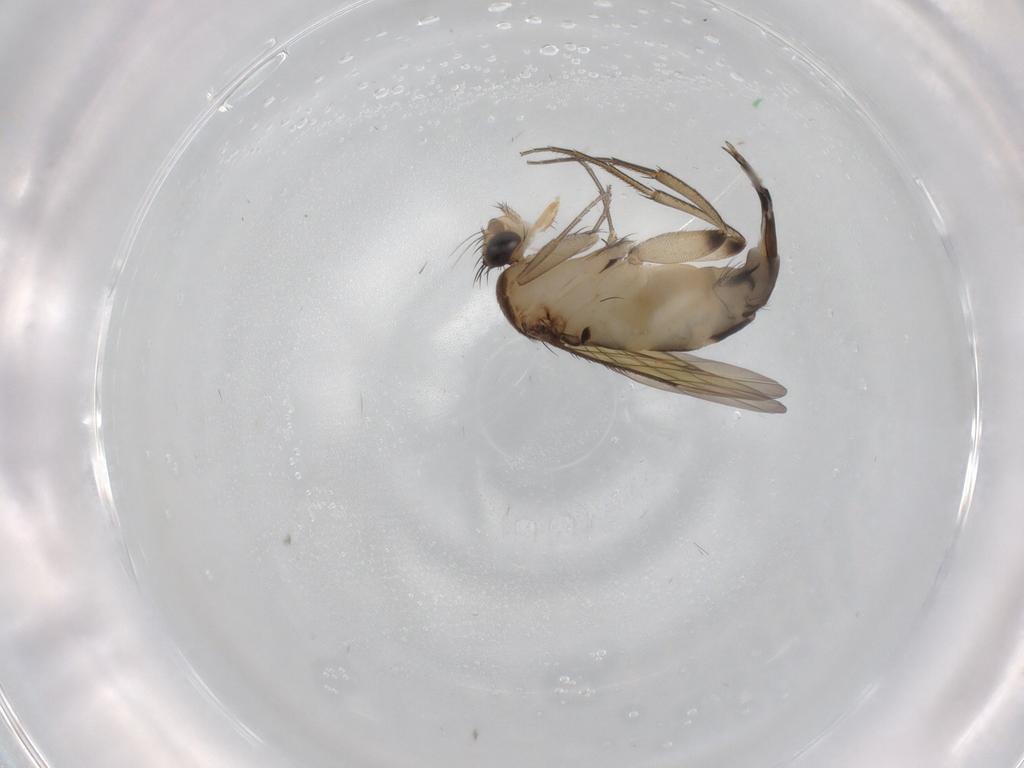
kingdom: Animalia
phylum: Arthropoda
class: Insecta
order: Diptera
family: Phoridae
